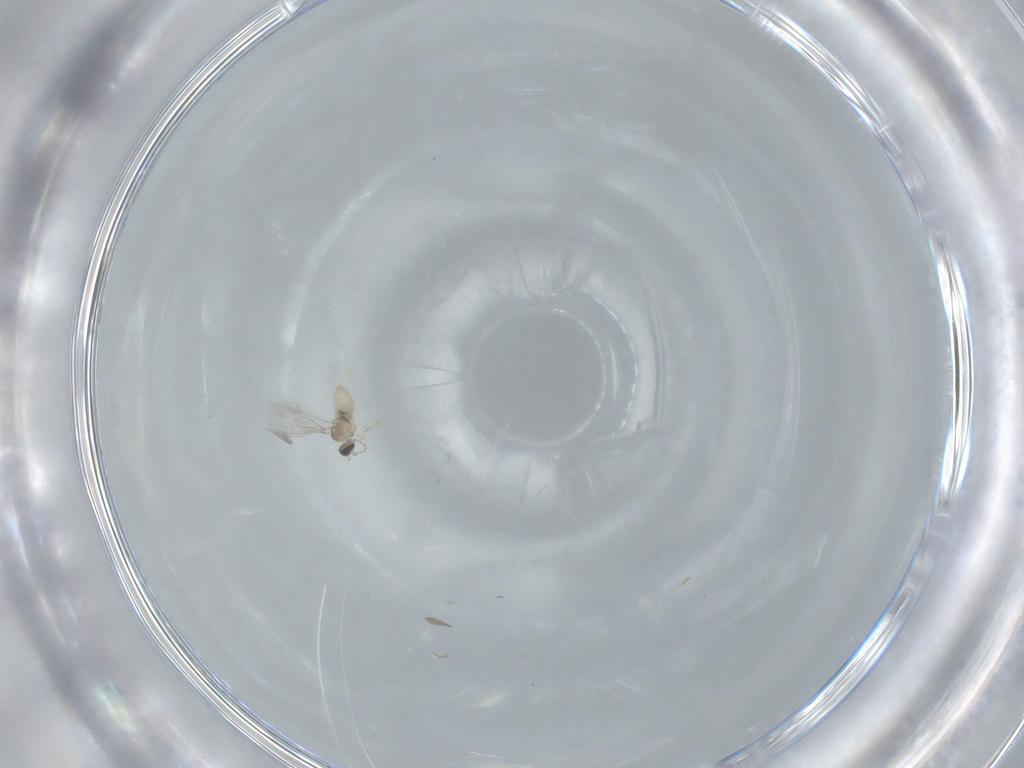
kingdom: Animalia
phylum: Arthropoda
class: Insecta
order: Diptera
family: Cecidomyiidae
